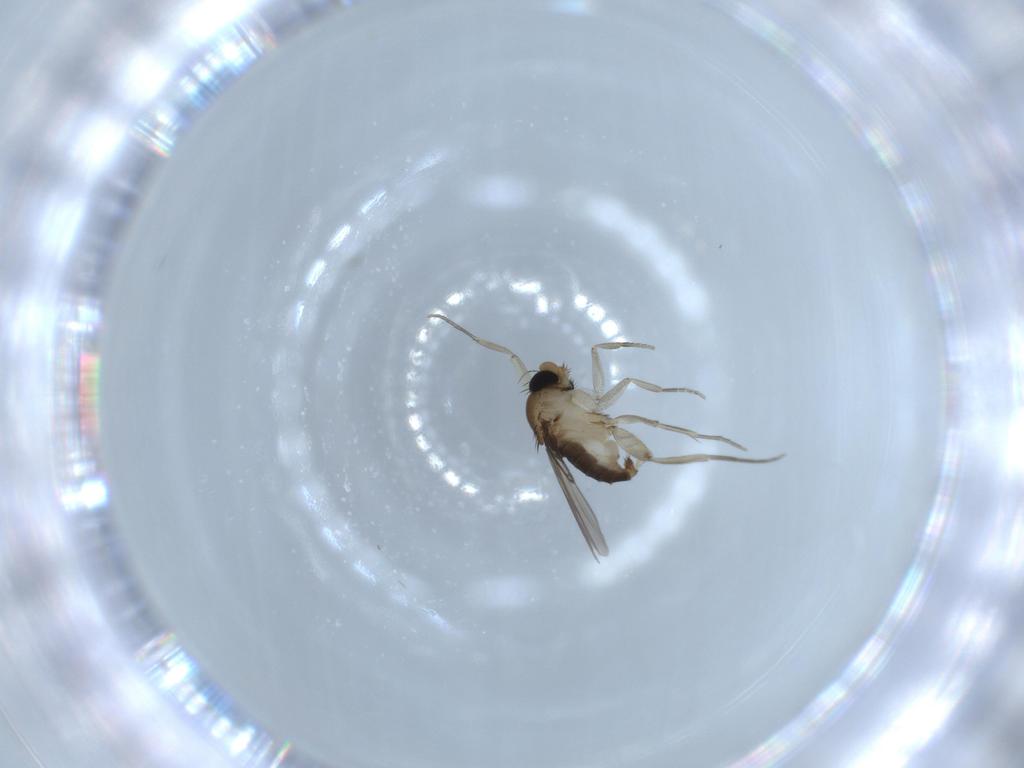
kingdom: Animalia
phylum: Arthropoda
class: Insecta
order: Diptera
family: Phoridae
